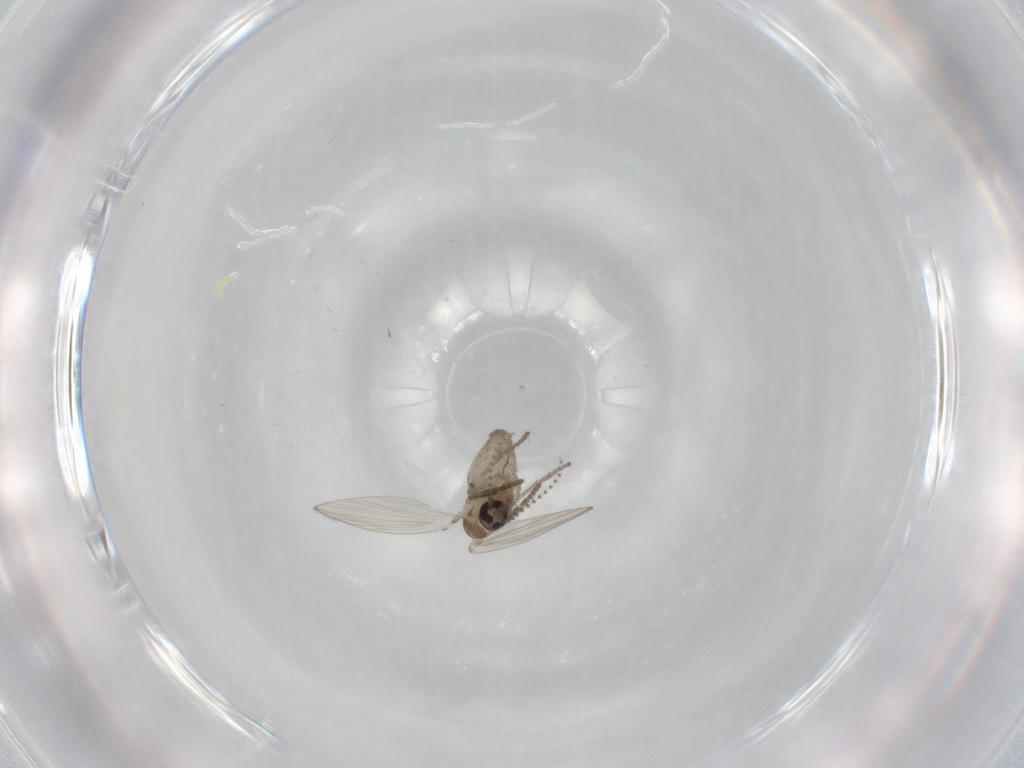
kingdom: Animalia
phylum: Arthropoda
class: Insecta
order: Diptera
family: Psychodidae
